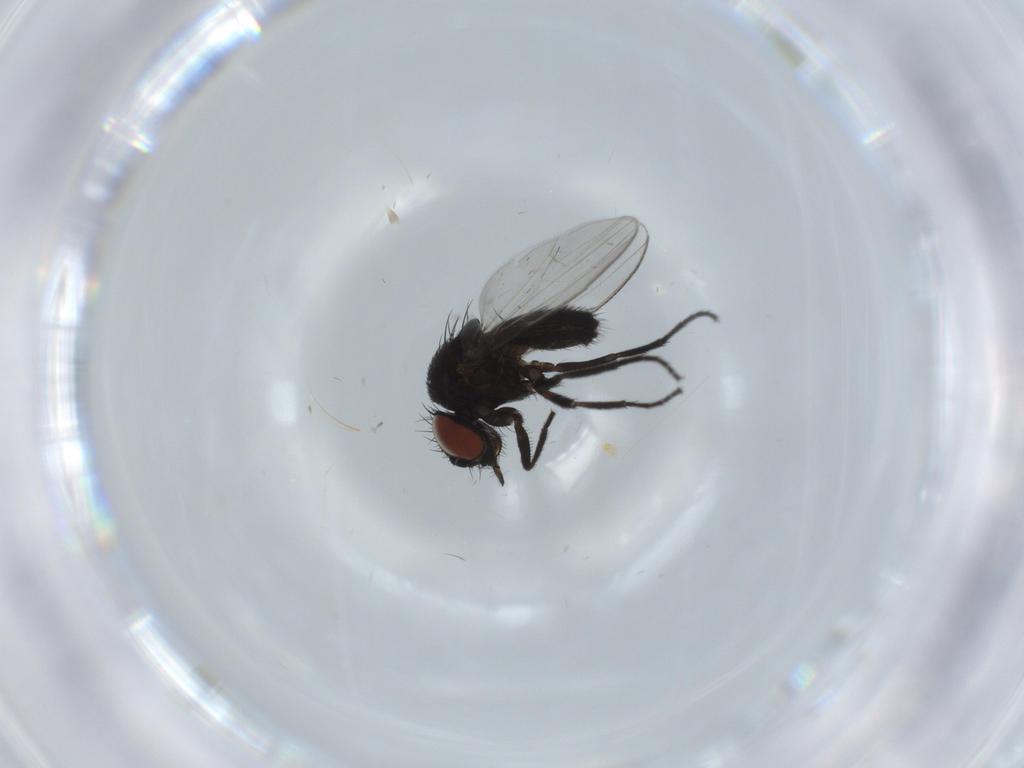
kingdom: Animalia
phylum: Arthropoda
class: Insecta
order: Diptera
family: Milichiidae
